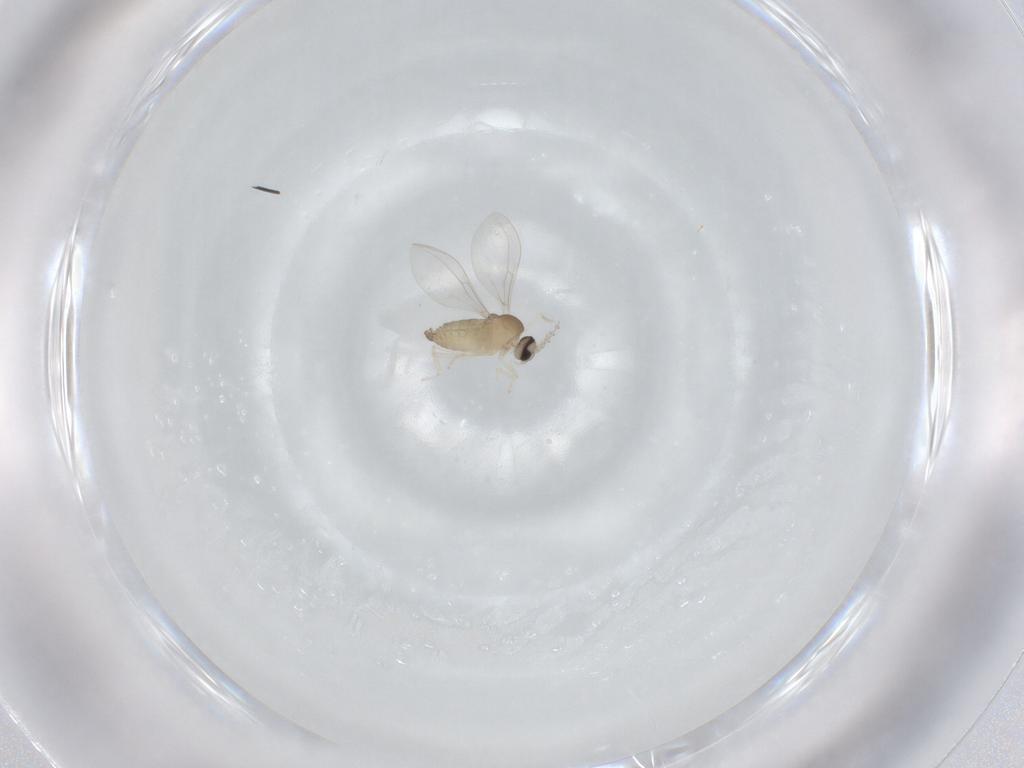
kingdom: Animalia
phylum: Arthropoda
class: Insecta
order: Diptera
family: Cecidomyiidae
